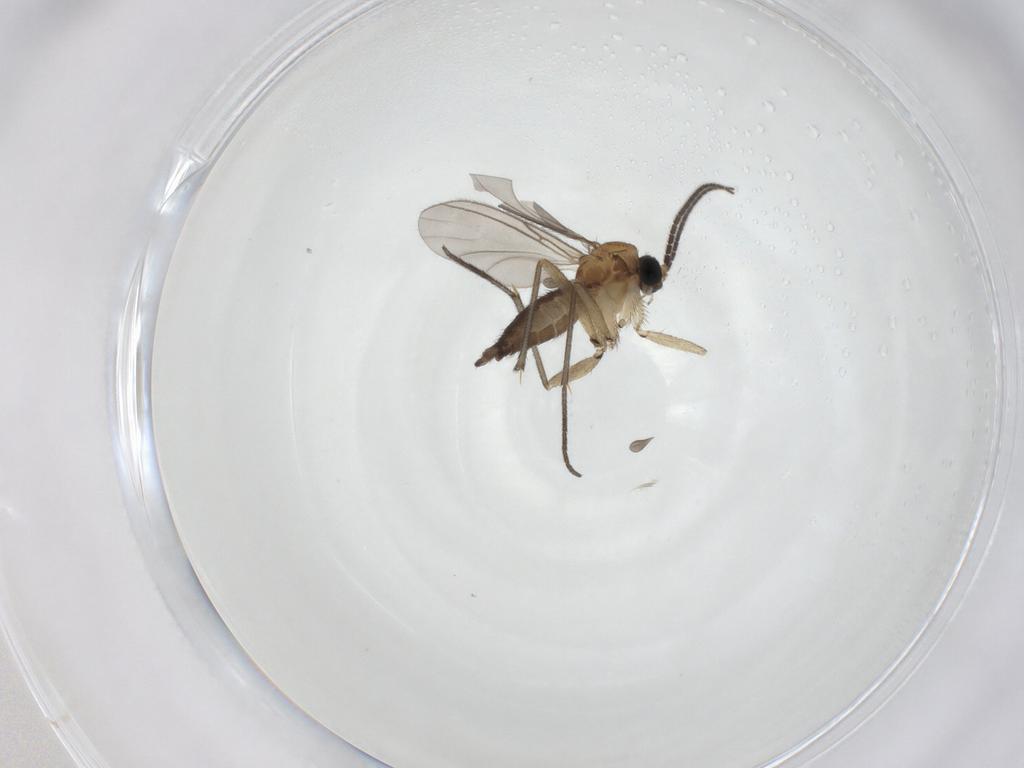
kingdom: Animalia
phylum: Arthropoda
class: Insecta
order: Diptera
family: Sciaridae
